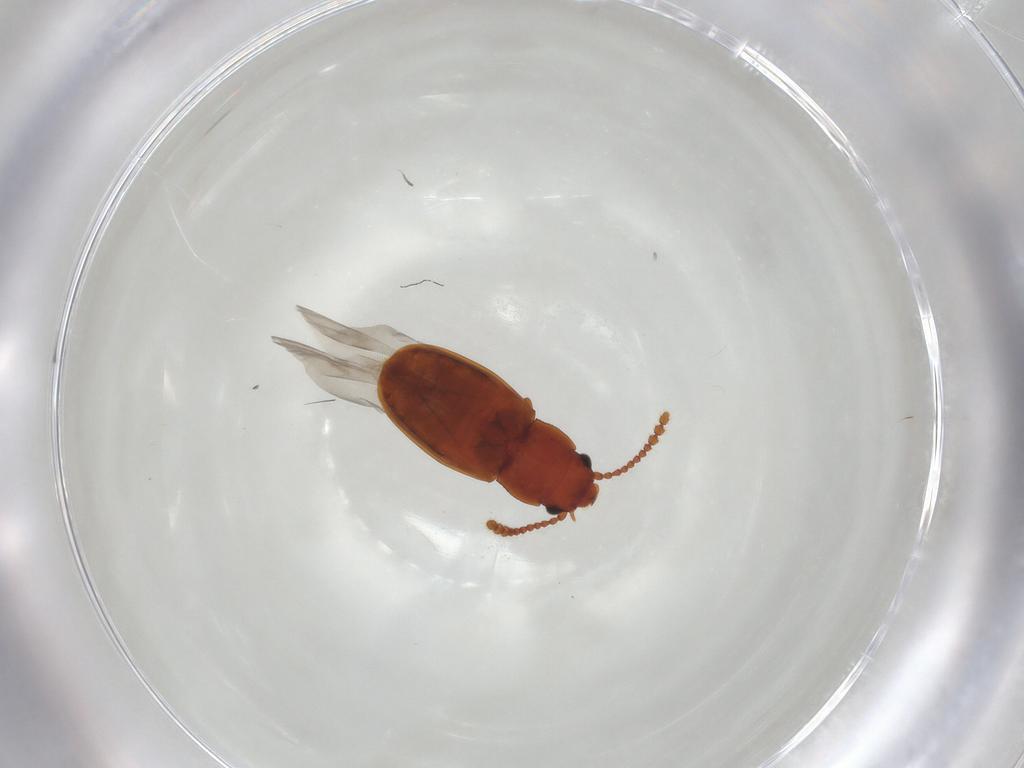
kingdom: Animalia
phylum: Arthropoda
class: Insecta
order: Coleoptera
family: Laemophloeidae
